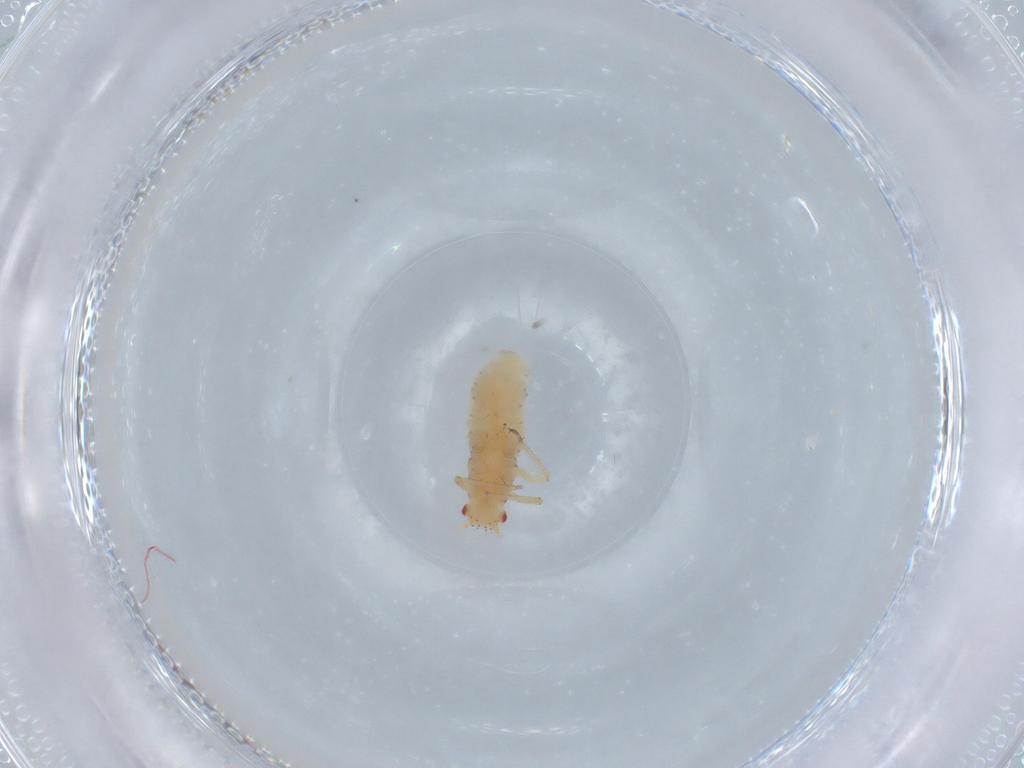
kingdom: Animalia
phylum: Arthropoda
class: Insecta
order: Hemiptera
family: Aphididae
